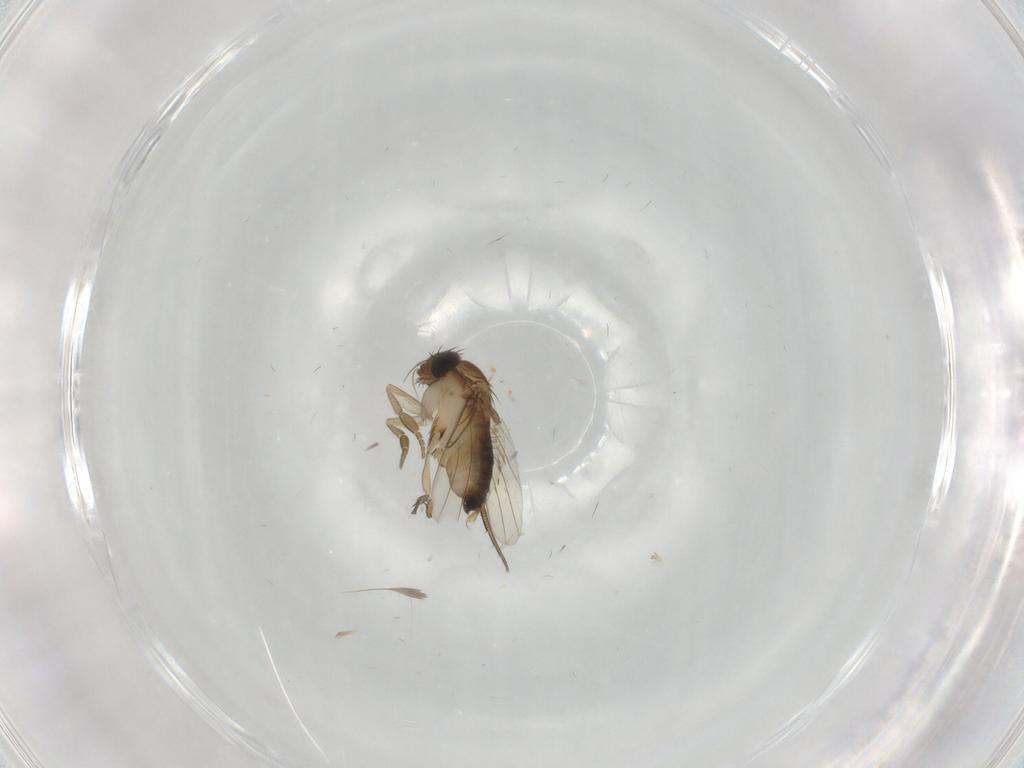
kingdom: Animalia
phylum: Arthropoda
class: Insecta
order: Diptera
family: Phoridae
